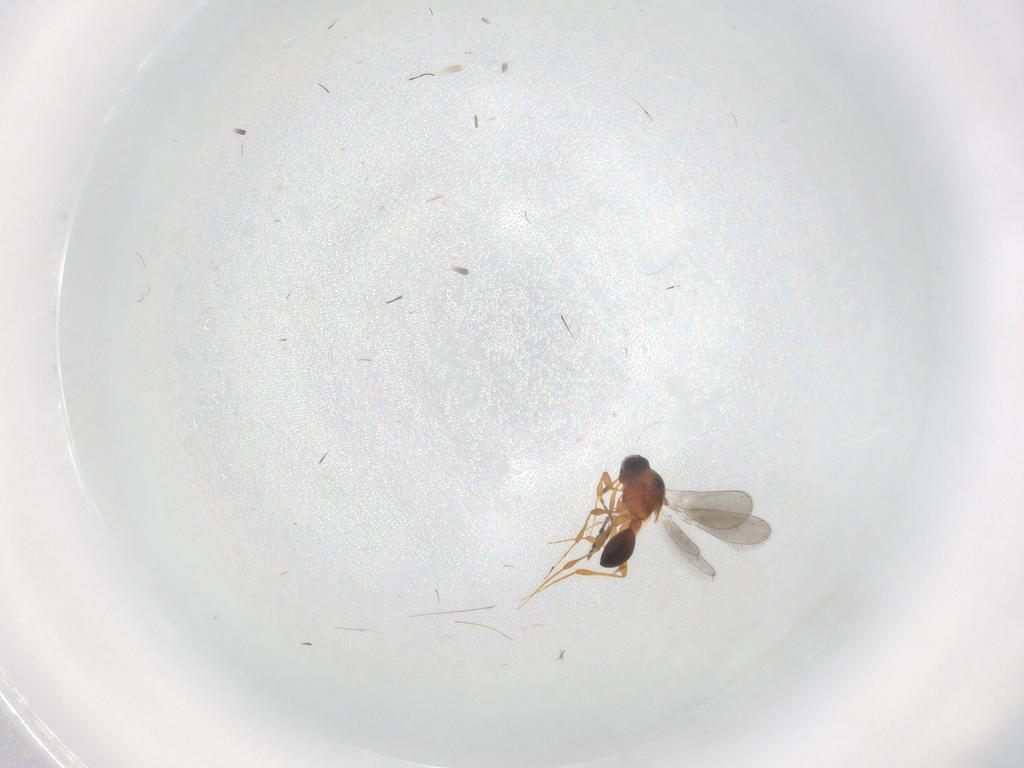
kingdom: Animalia
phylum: Arthropoda
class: Insecta
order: Hymenoptera
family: Platygastridae
